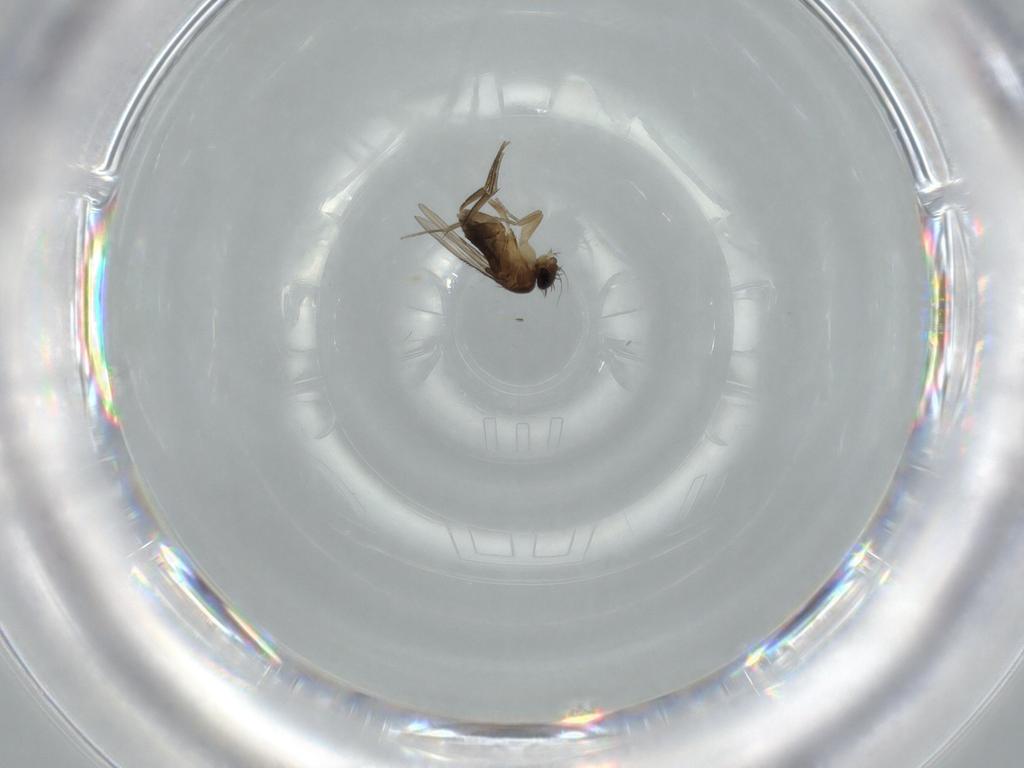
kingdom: Animalia
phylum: Arthropoda
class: Insecta
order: Diptera
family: Phoridae
